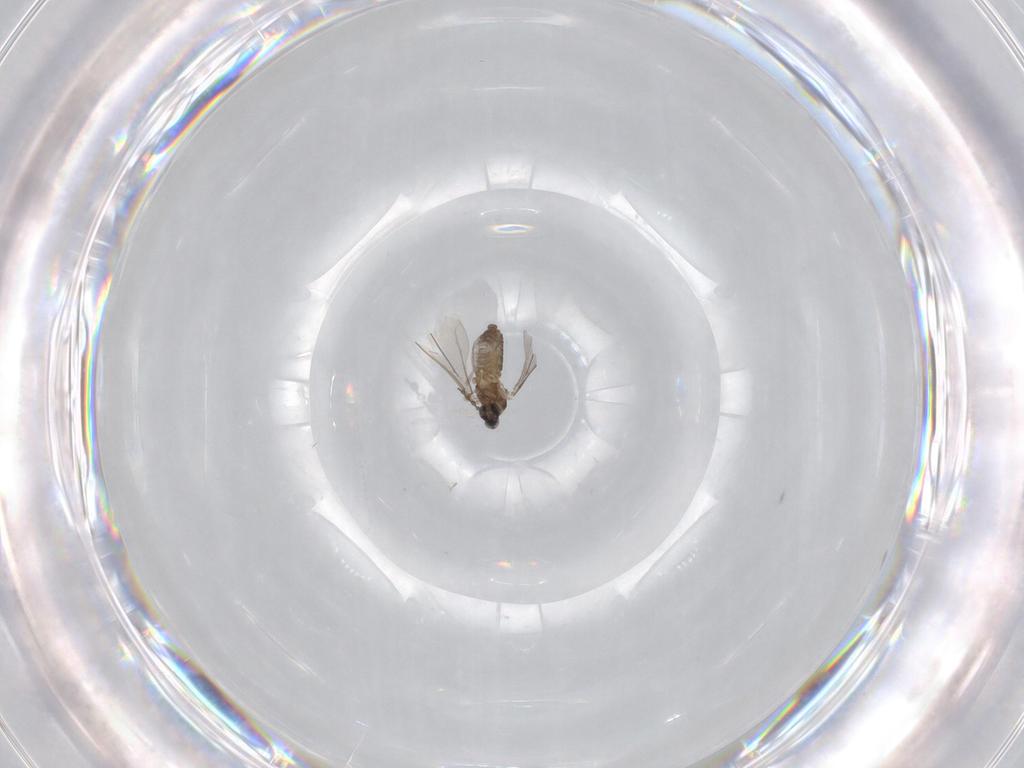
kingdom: Animalia
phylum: Arthropoda
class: Insecta
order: Diptera
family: Cecidomyiidae
